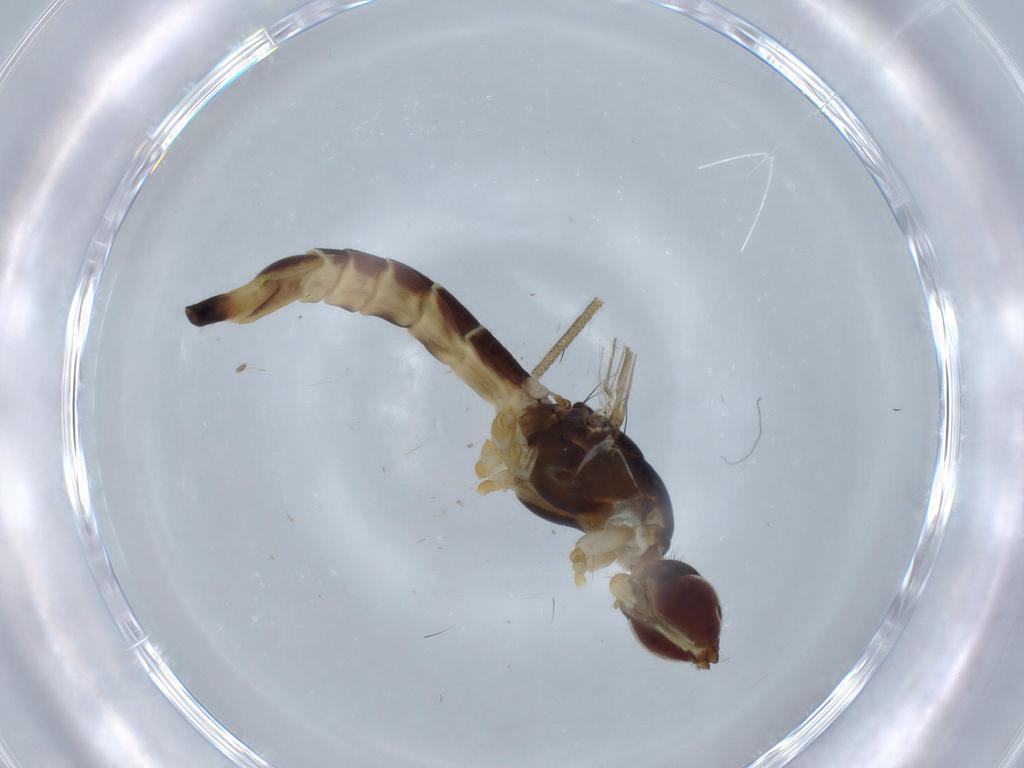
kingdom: Animalia
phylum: Arthropoda
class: Insecta
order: Diptera
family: Micropezidae
